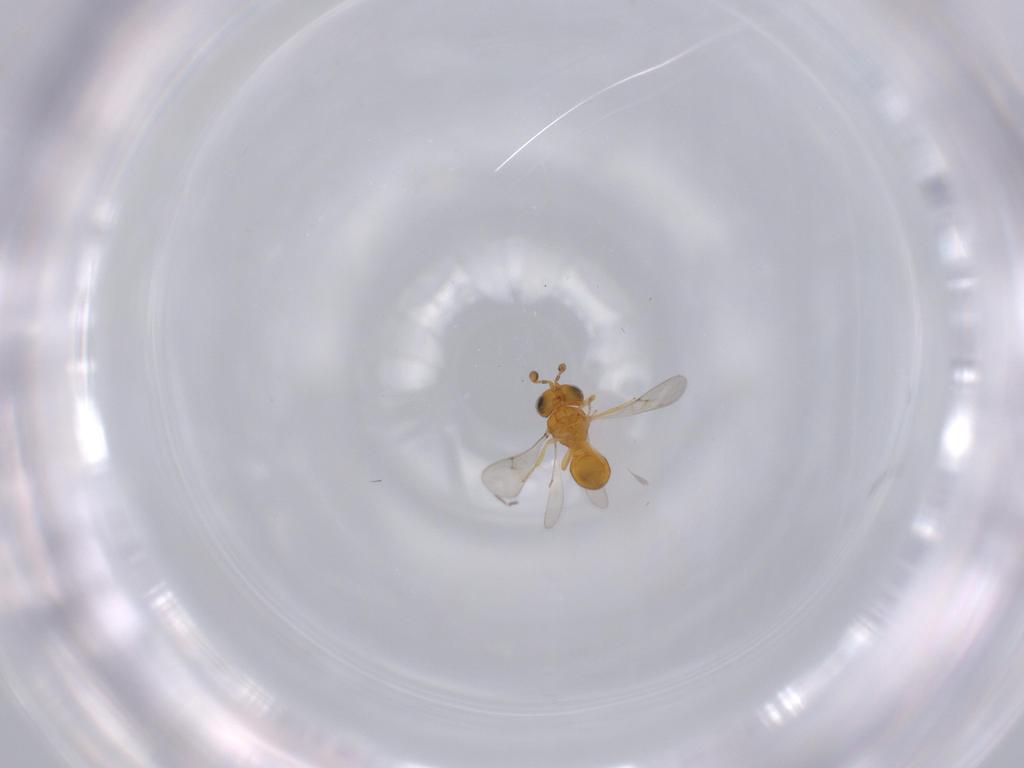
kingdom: Animalia
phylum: Arthropoda
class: Insecta
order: Hymenoptera
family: Scelionidae
